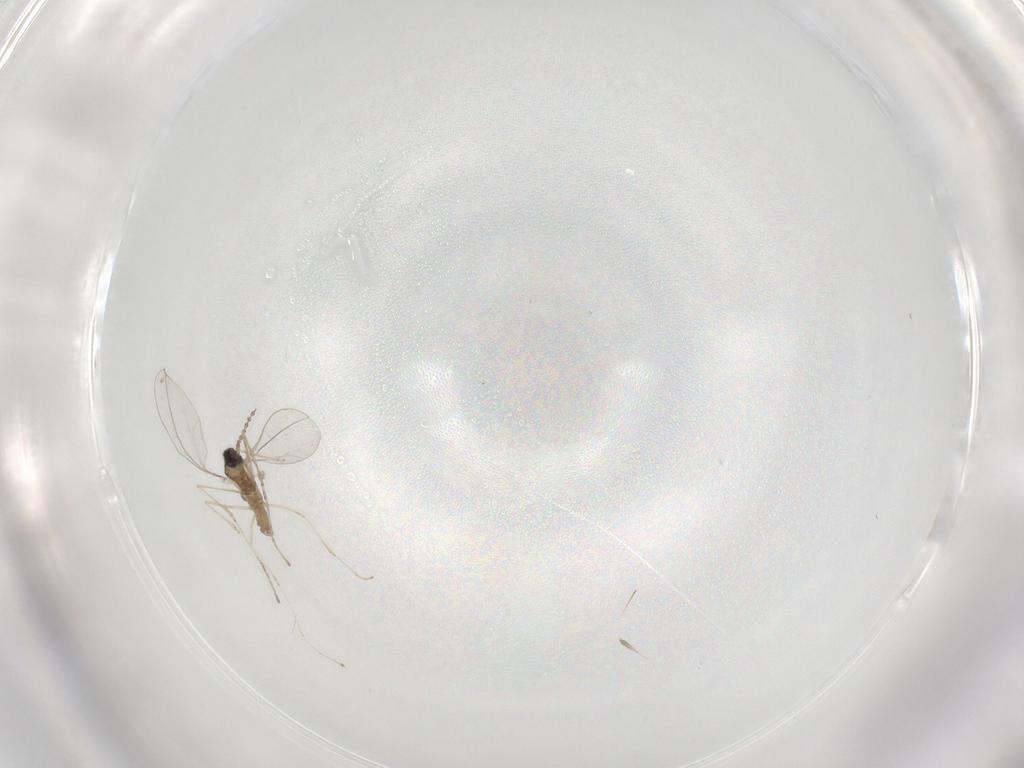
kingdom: Animalia
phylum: Arthropoda
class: Insecta
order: Diptera
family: Cecidomyiidae
